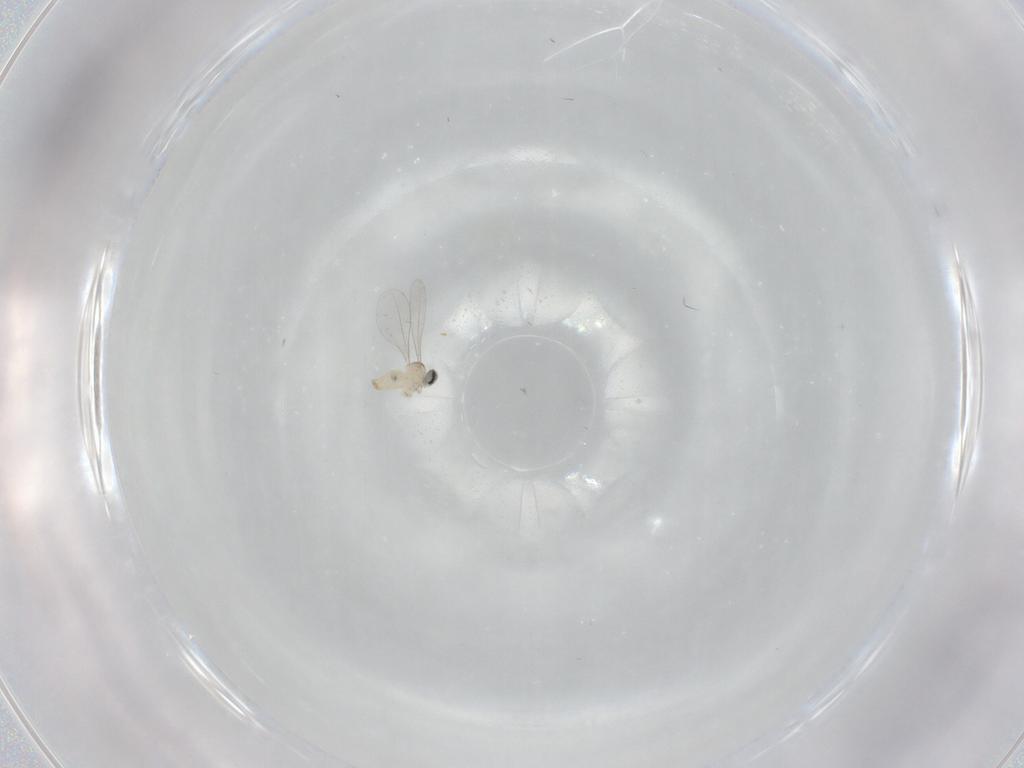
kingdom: Animalia
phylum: Arthropoda
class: Insecta
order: Diptera
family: Cecidomyiidae
